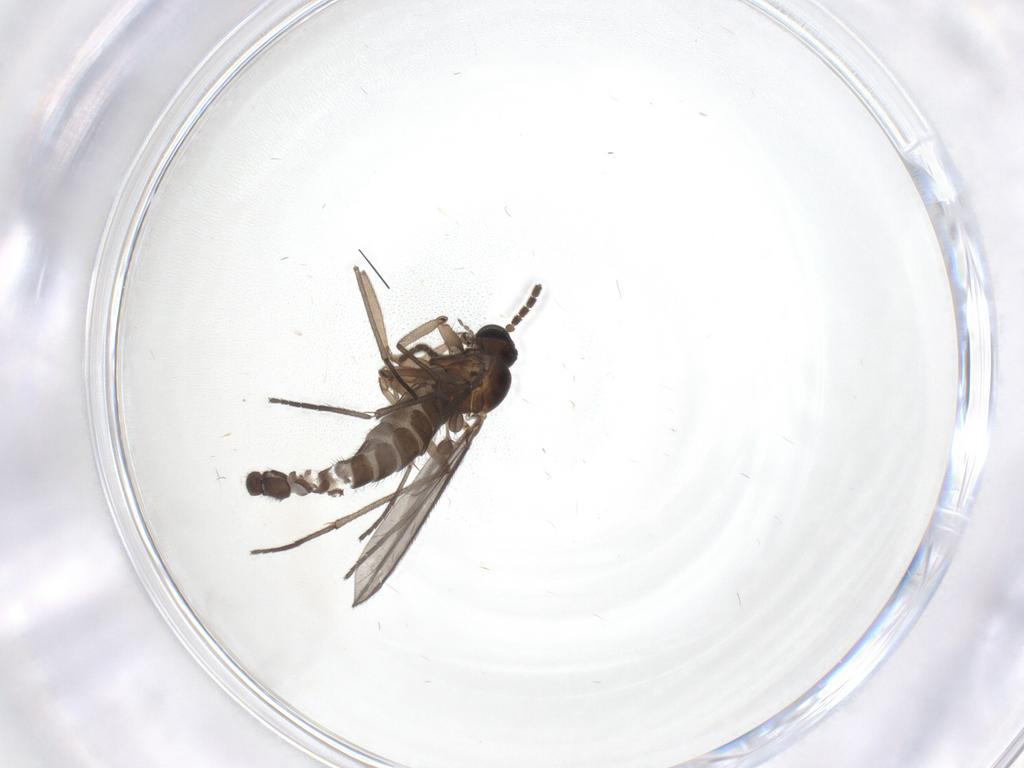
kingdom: Animalia
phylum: Arthropoda
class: Insecta
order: Diptera
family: Sciaridae
